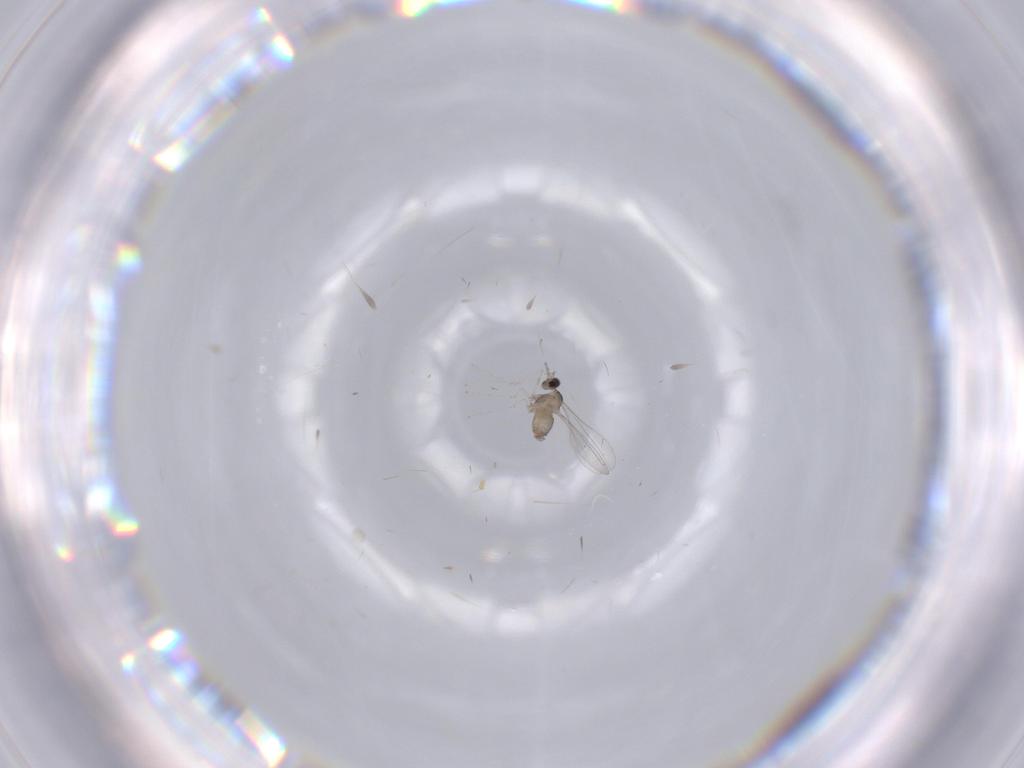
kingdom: Animalia
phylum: Arthropoda
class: Insecta
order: Diptera
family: Cecidomyiidae
